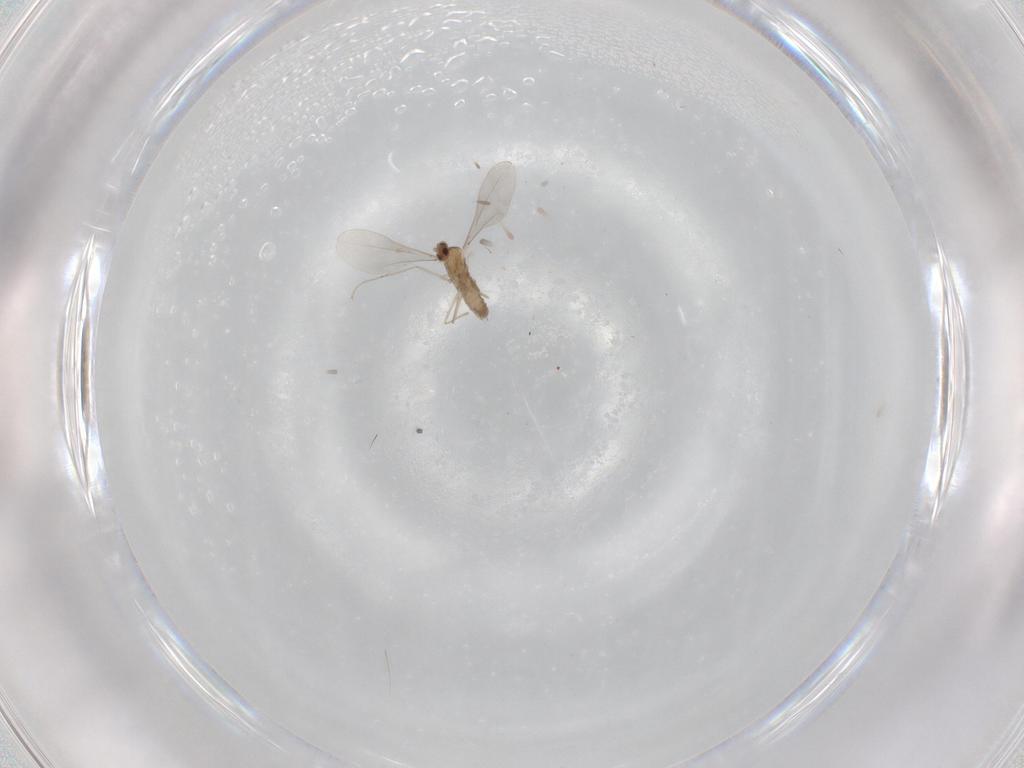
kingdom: Animalia
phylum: Arthropoda
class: Insecta
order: Diptera
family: Cecidomyiidae
